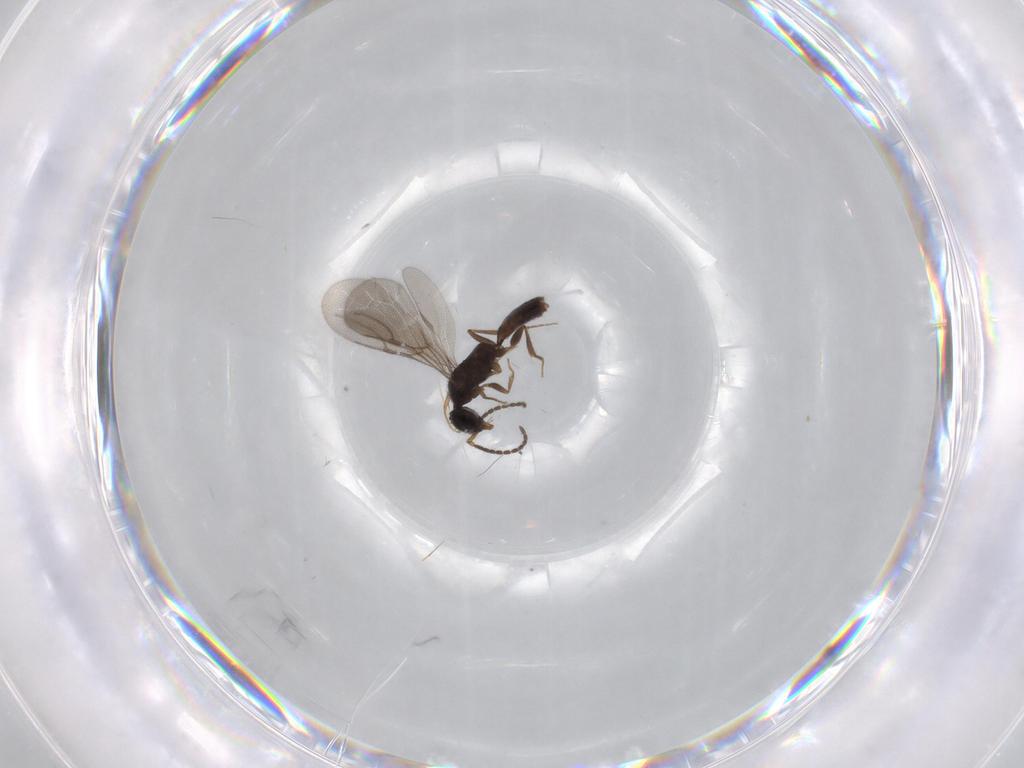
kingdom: Animalia
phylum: Arthropoda
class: Insecta
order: Hymenoptera
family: Bethylidae
